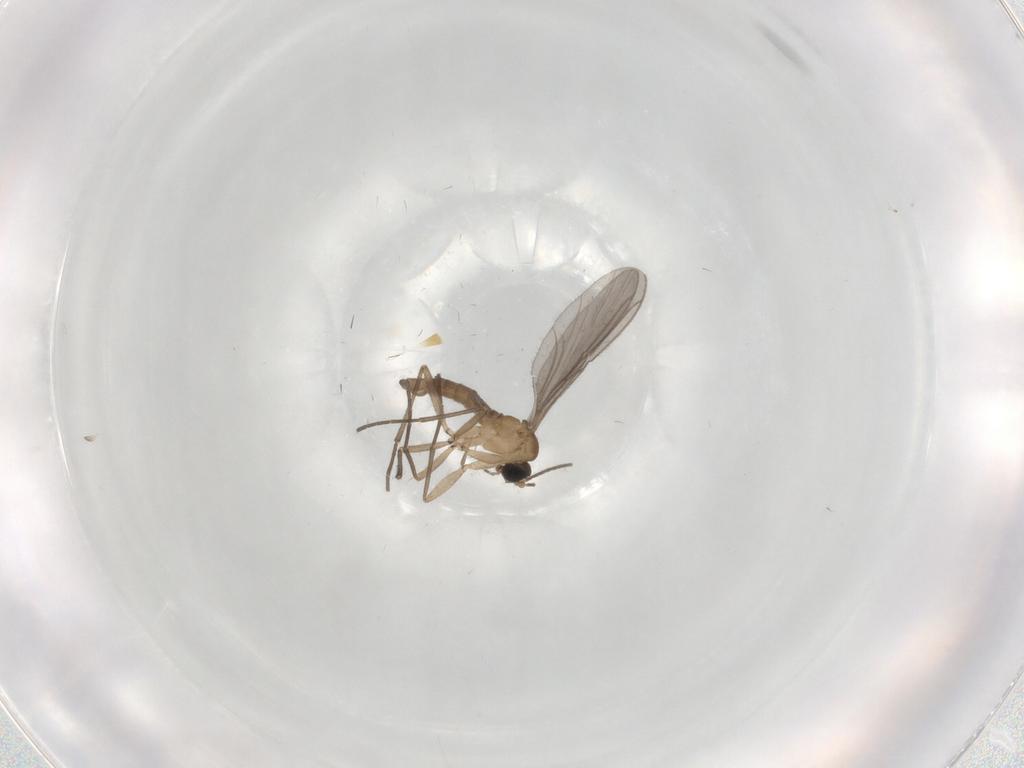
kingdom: Animalia
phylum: Arthropoda
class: Insecta
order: Diptera
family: Sciaridae
